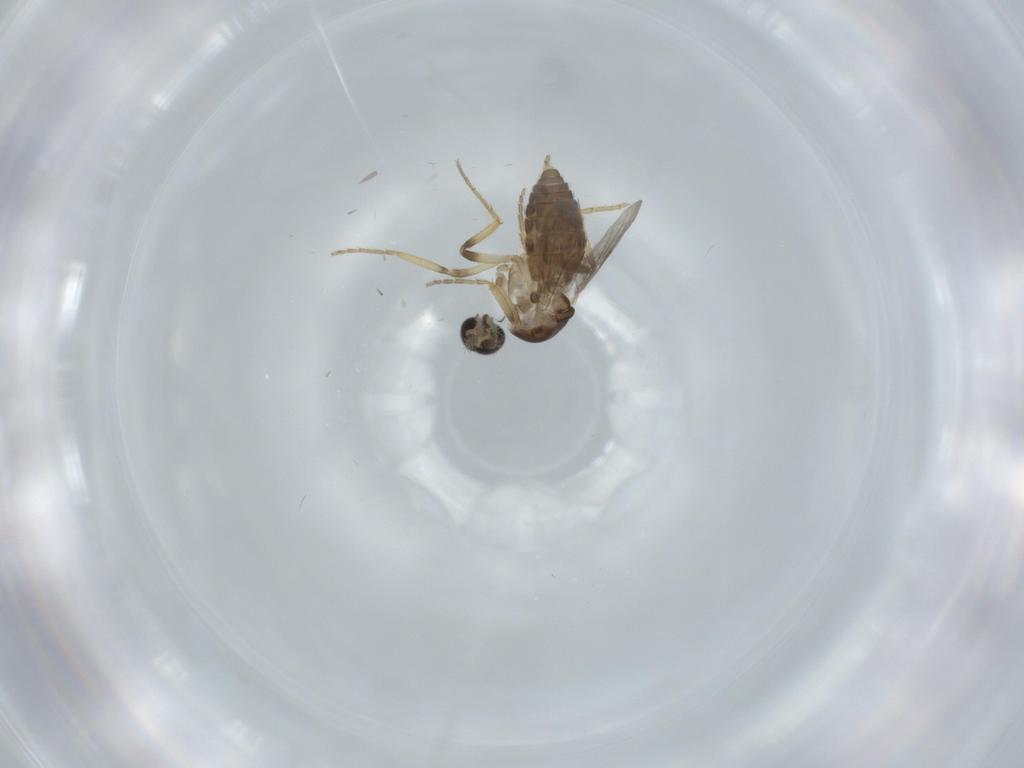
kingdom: Animalia
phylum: Arthropoda
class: Insecta
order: Diptera
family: Ceratopogonidae
